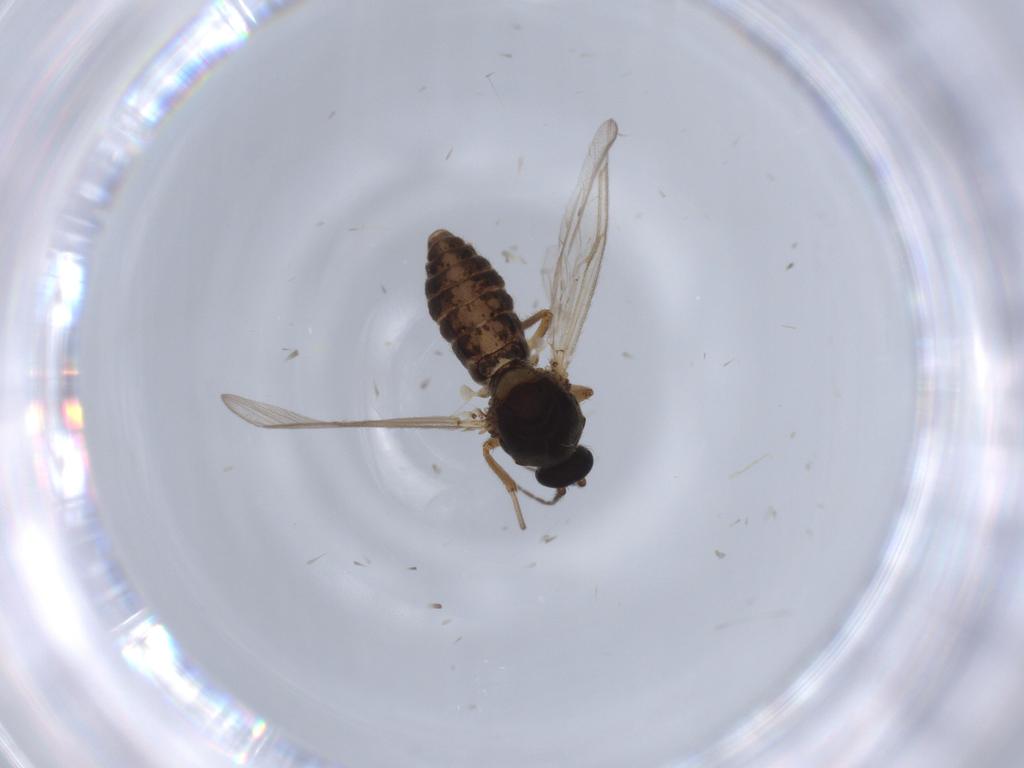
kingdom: Animalia
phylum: Arthropoda
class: Insecta
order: Diptera
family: Ceratopogonidae
